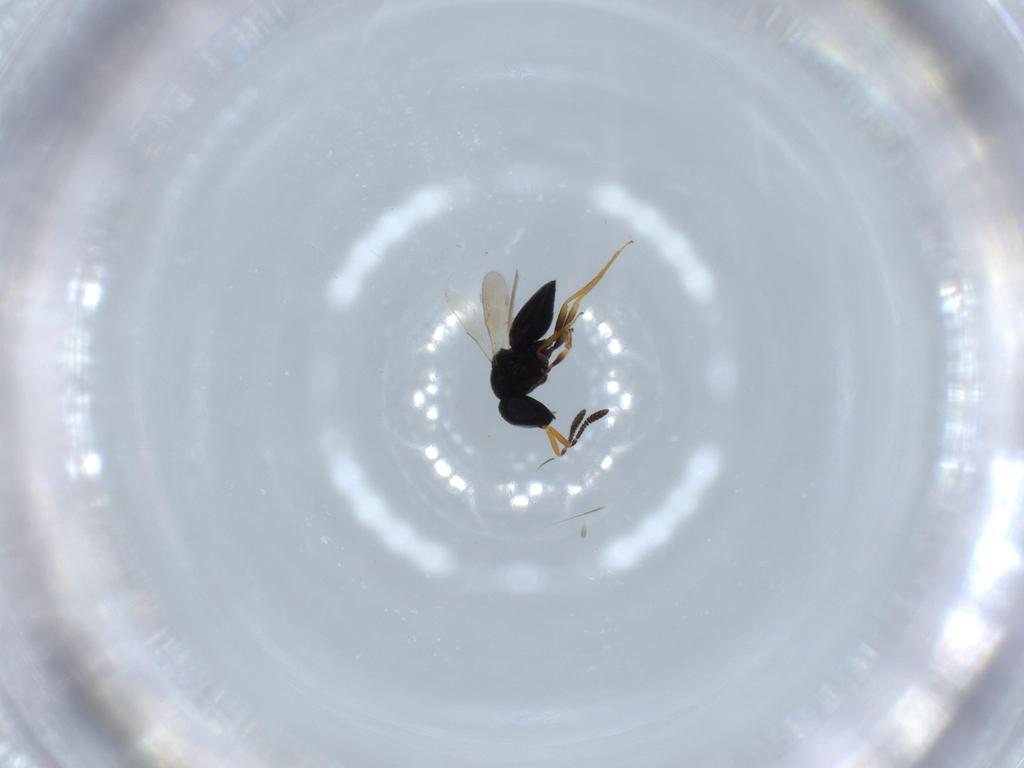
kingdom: Animalia
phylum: Arthropoda
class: Insecta
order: Hymenoptera
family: Scelionidae
